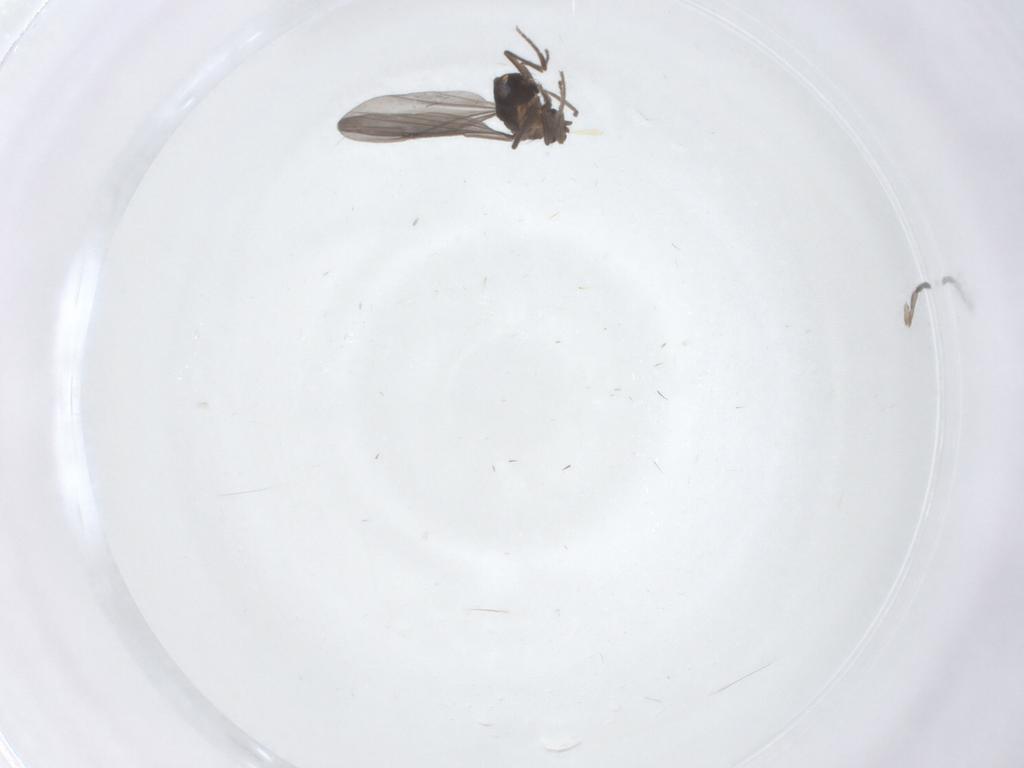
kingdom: Animalia
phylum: Arthropoda
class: Insecta
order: Diptera
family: Phoridae
